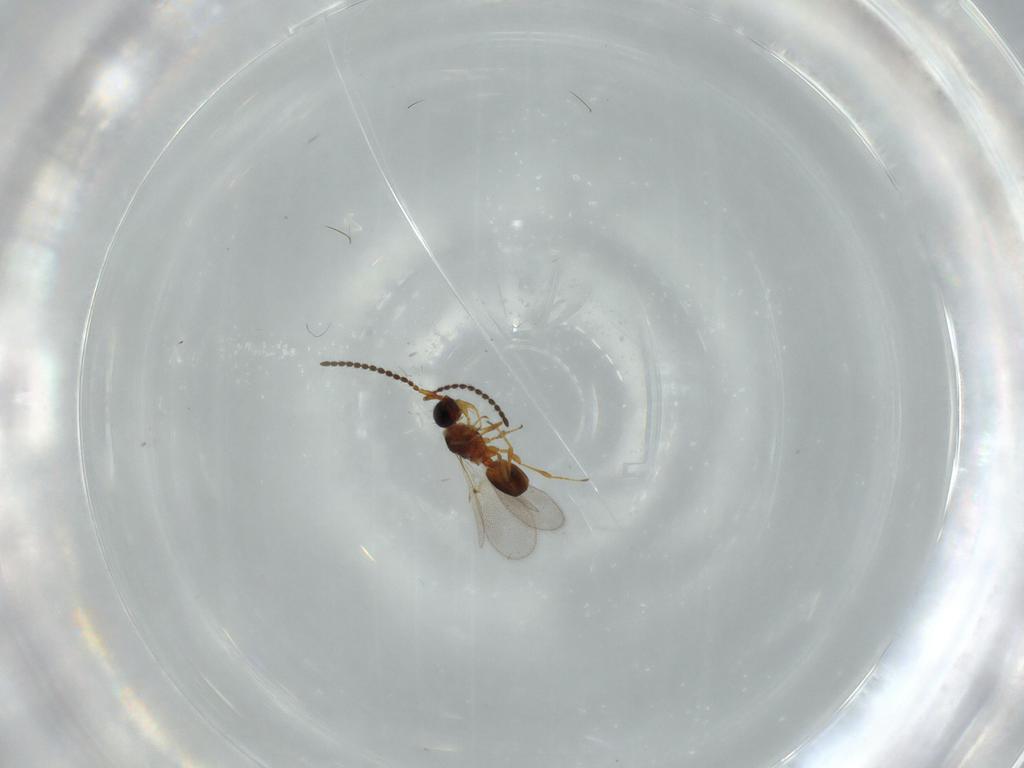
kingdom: Animalia
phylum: Arthropoda
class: Insecta
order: Hymenoptera
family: Diapriidae
